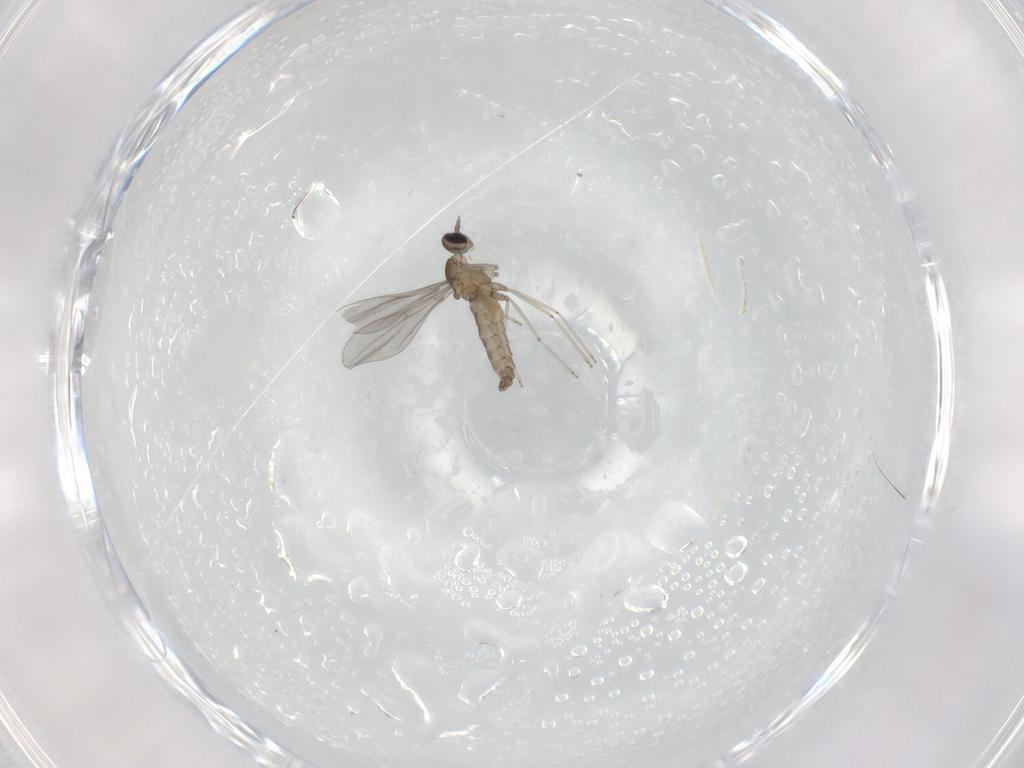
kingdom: Animalia
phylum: Arthropoda
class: Insecta
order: Diptera
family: Cecidomyiidae
